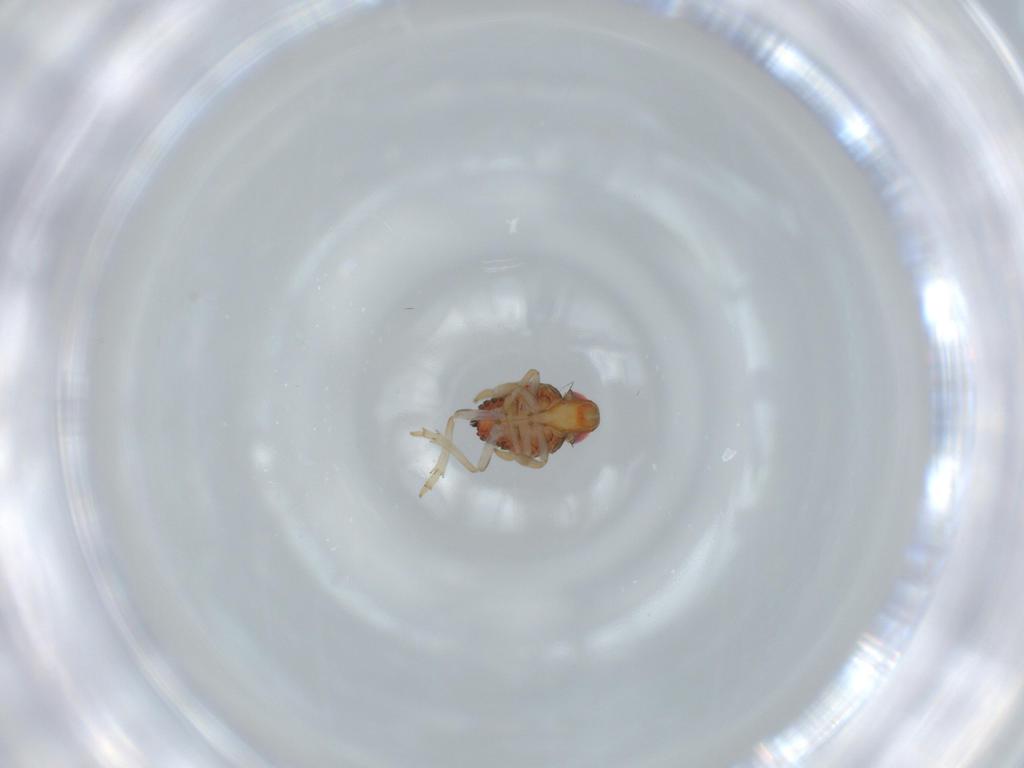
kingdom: Animalia
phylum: Arthropoda
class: Insecta
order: Hemiptera
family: Issidae
